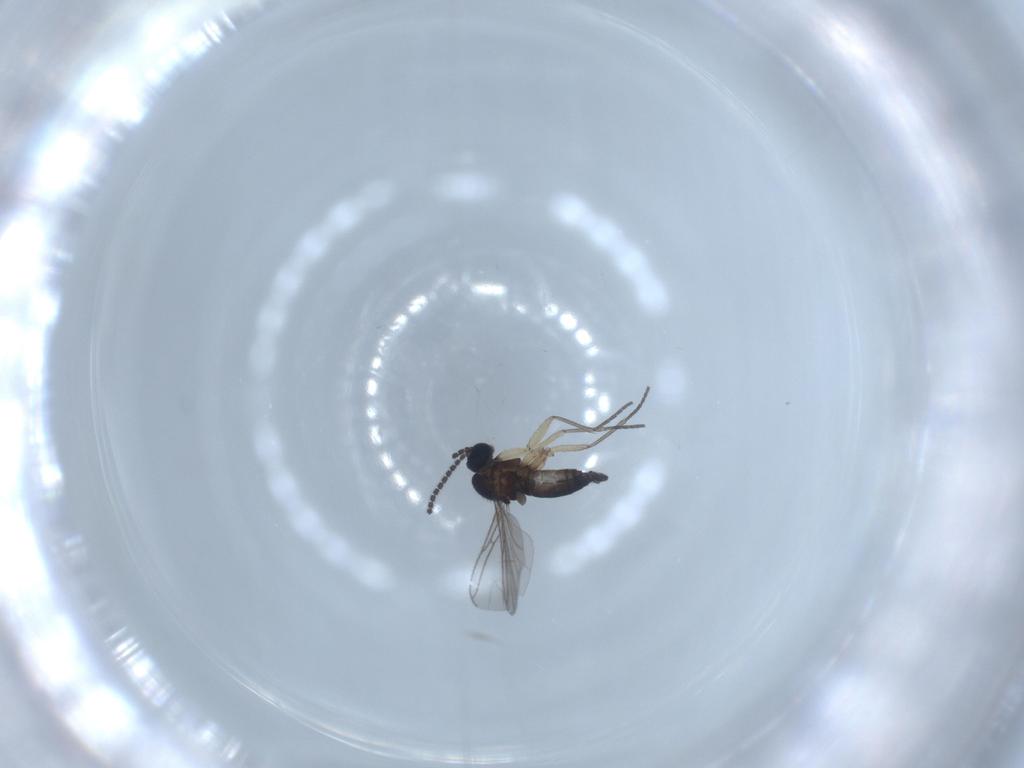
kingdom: Animalia
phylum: Arthropoda
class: Insecta
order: Diptera
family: Sciaridae
